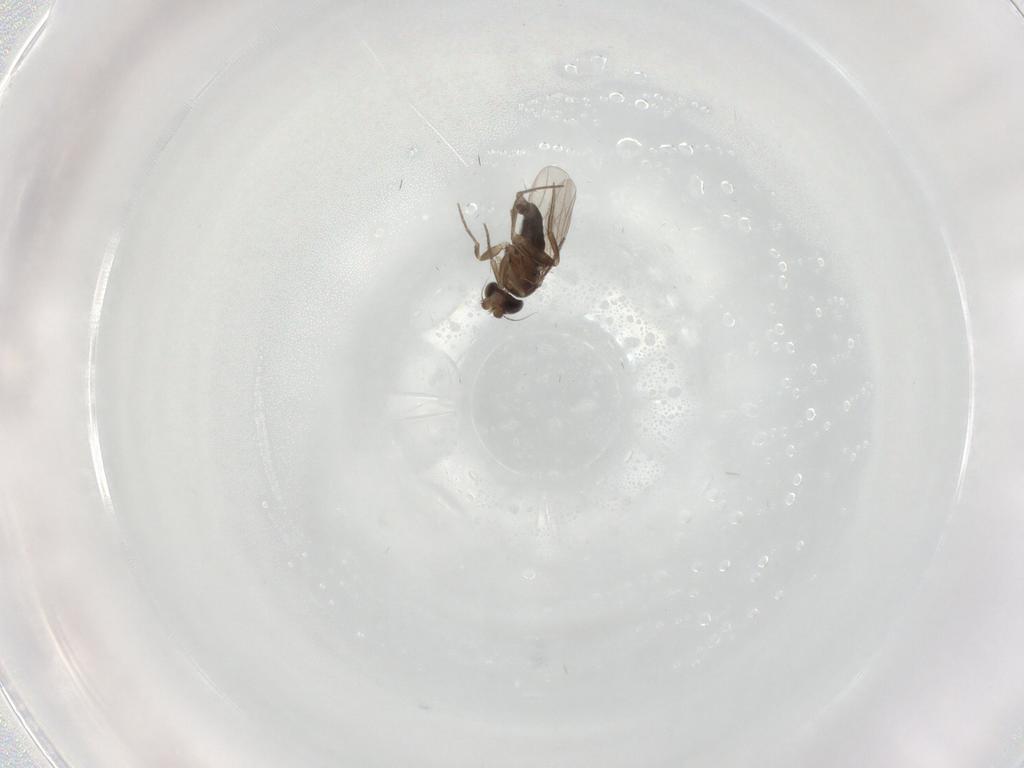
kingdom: Animalia
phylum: Arthropoda
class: Insecta
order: Diptera
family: Phoridae
